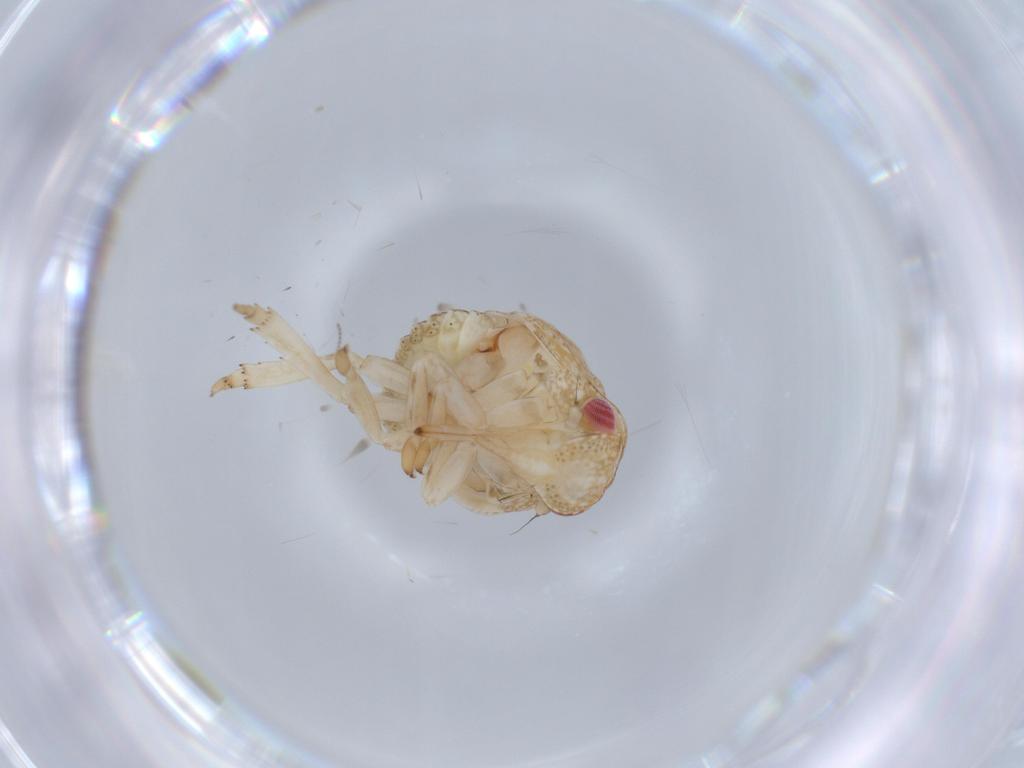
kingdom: Animalia
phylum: Arthropoda
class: Insecta
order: Hemiptera
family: Acanaloniidae
